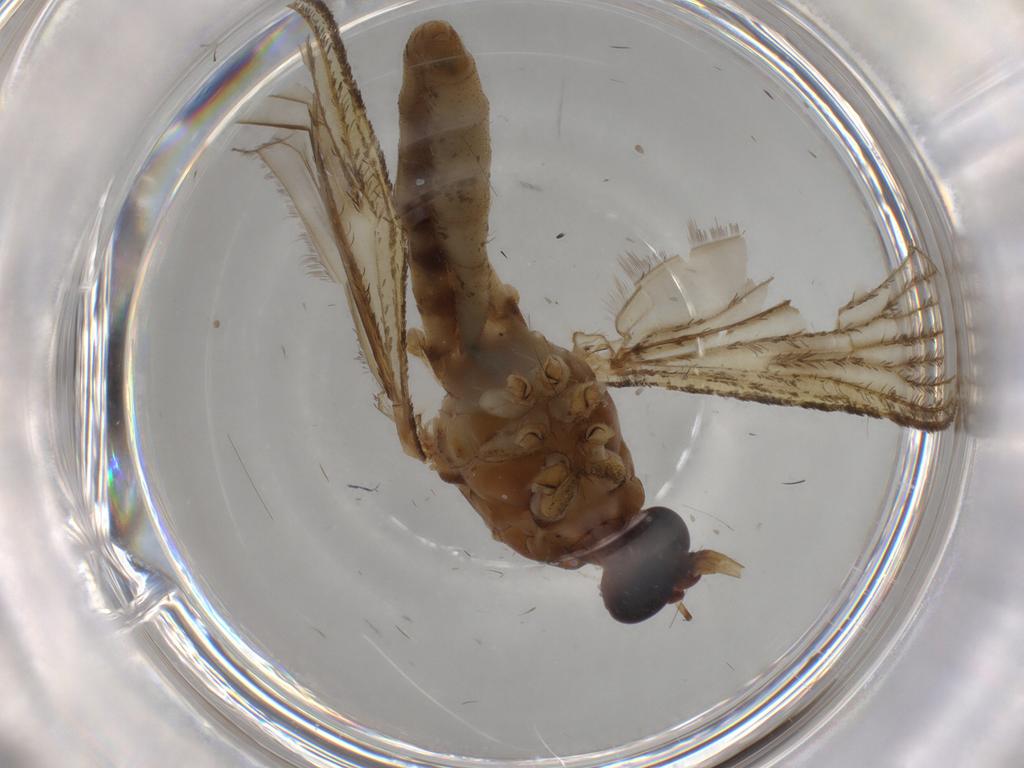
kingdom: Animalia
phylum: Arthropoda
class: Insecta
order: Diptera
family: Culicidae
